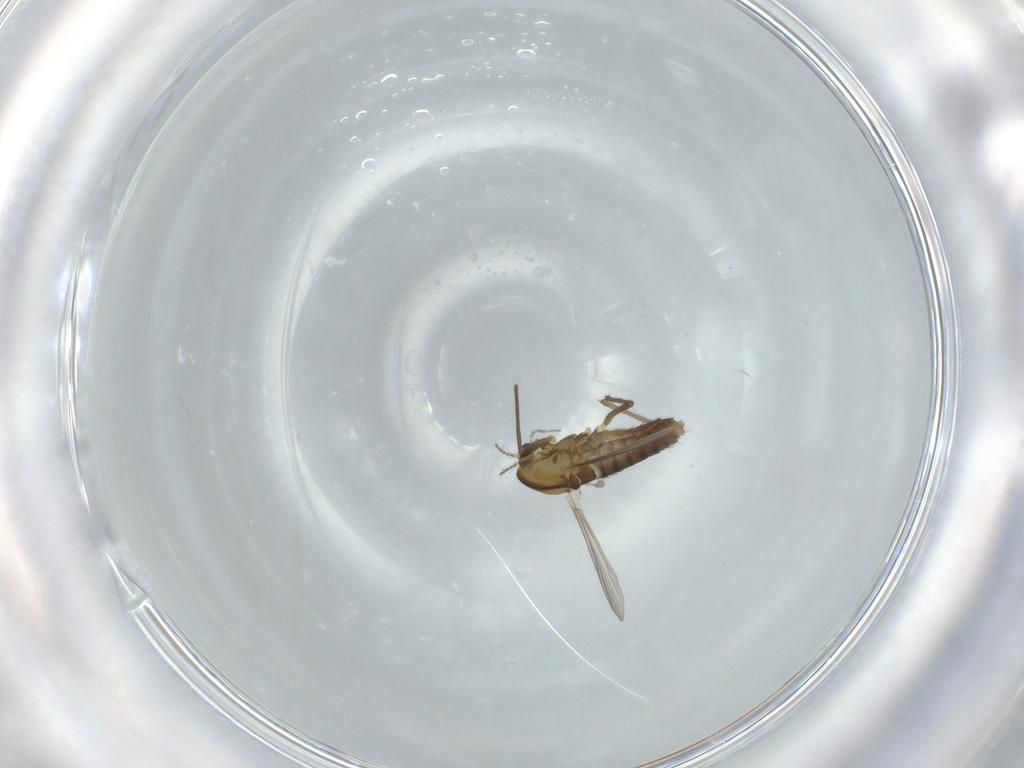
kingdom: Animalia
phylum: Arthropoda
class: Insecta
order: Diptera
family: Chironomidae
